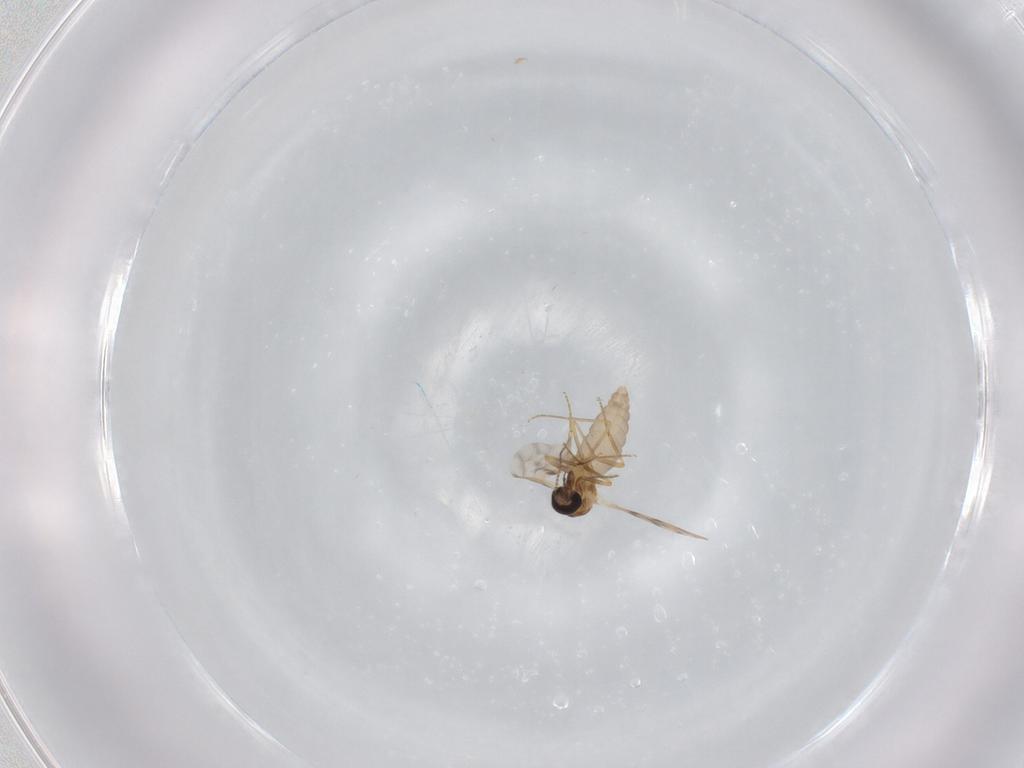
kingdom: Animalia
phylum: Arthropoda
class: Insecta
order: Diptera
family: Ceratopogonidae
